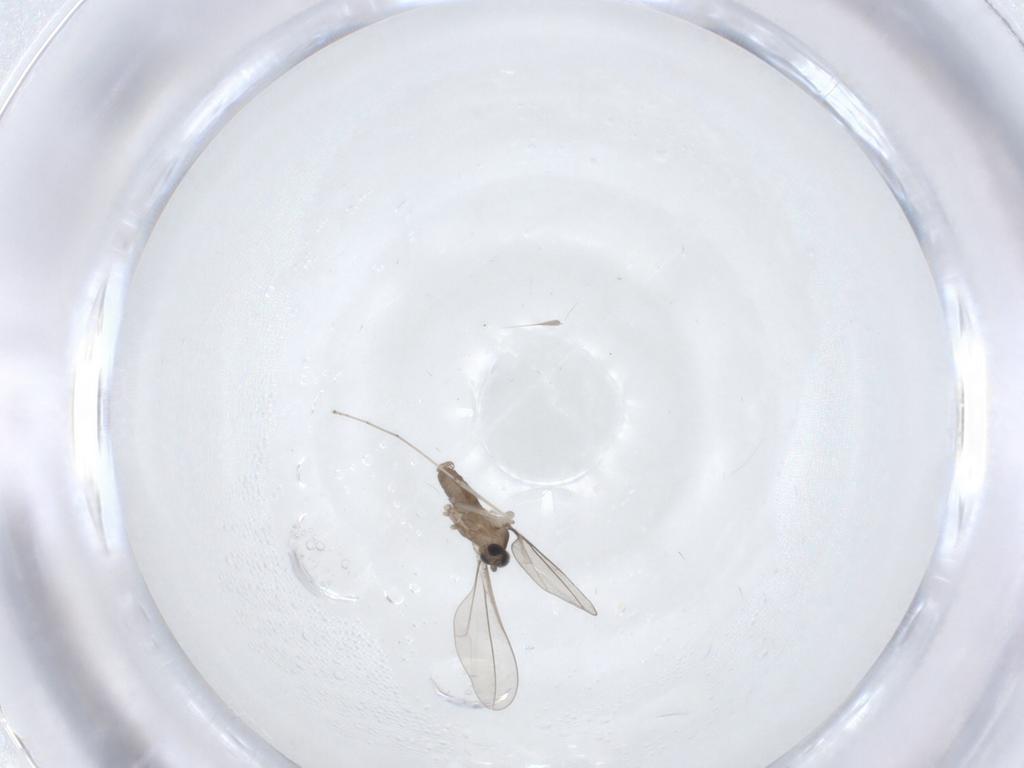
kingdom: Animalia
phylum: Arthropoda
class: Insecta
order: Diptera
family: Cecidomyiidae
